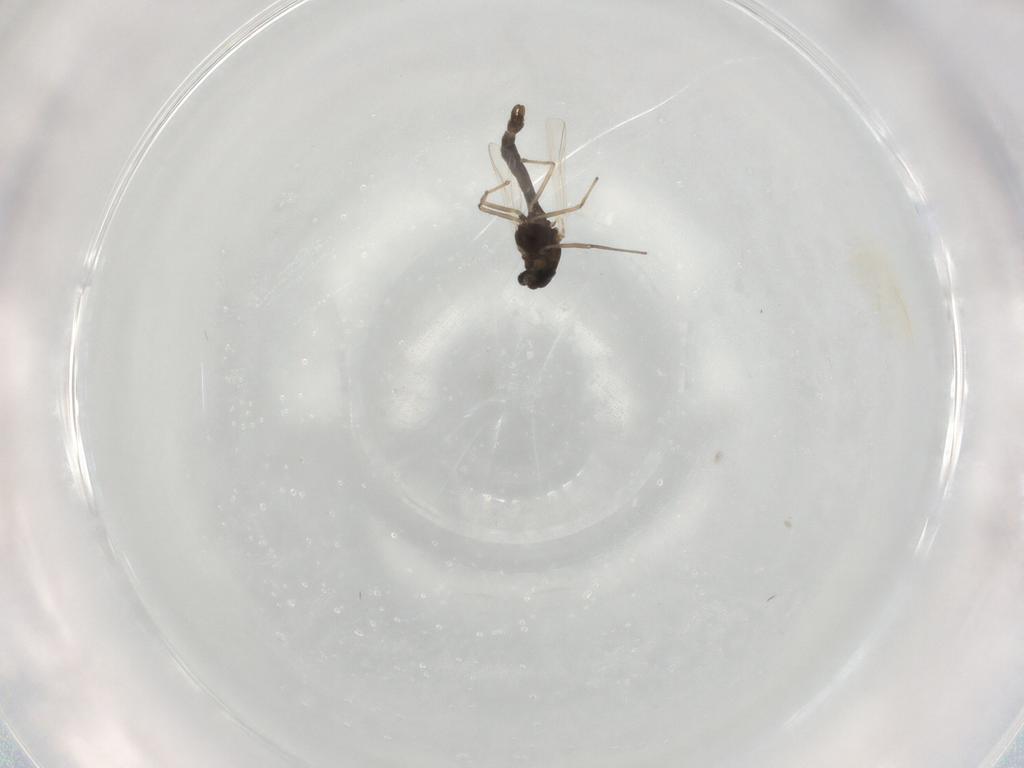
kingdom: Animalia
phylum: Arthropoda
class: Insecta
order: Diptera
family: Chironomidae
